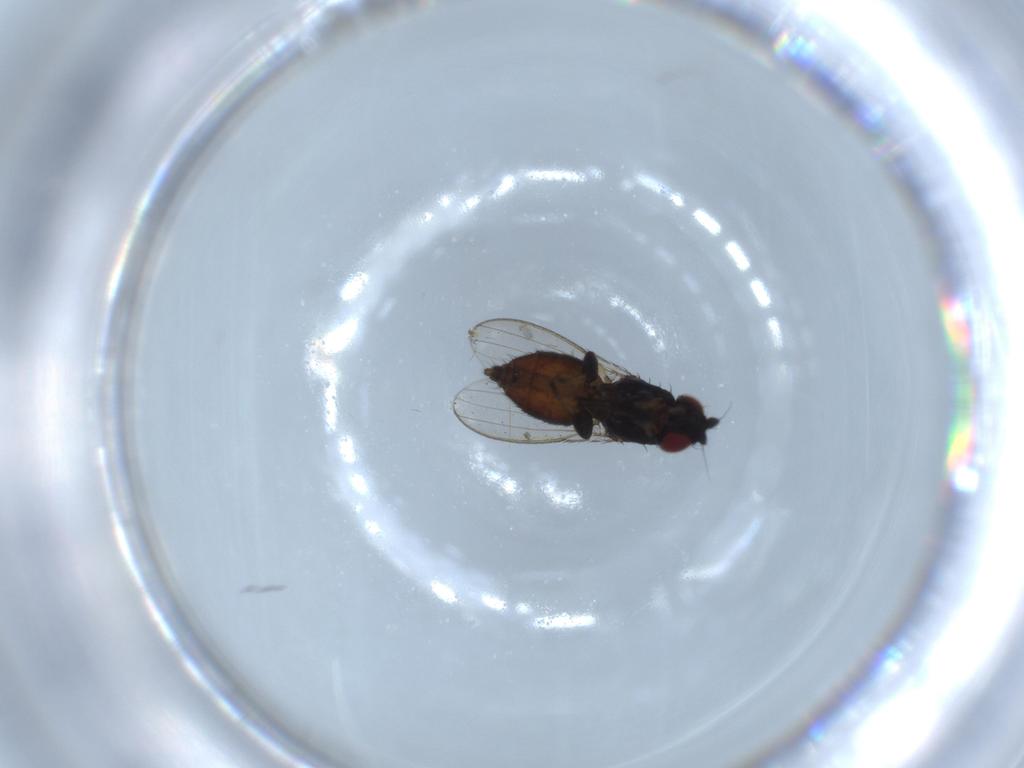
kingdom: Animalia
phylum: Arthropoda
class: Insecta
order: Diptera
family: Milichiidae
